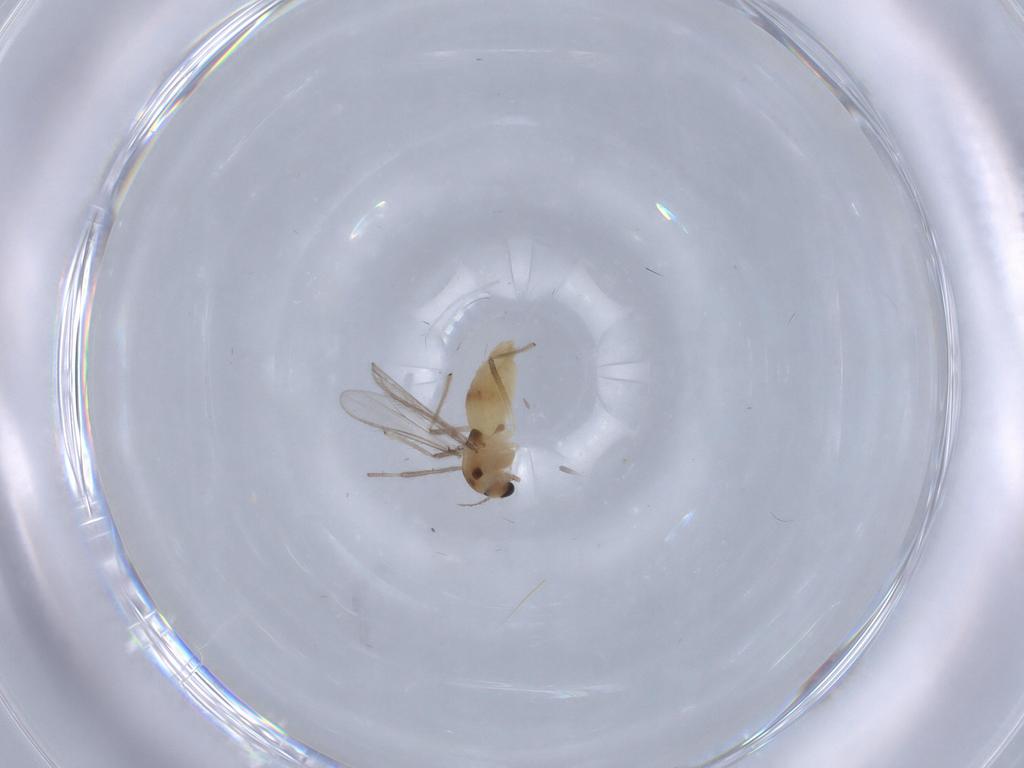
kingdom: Animalia
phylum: Arthropoda
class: Insecta
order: Diptera
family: Chironomidae
